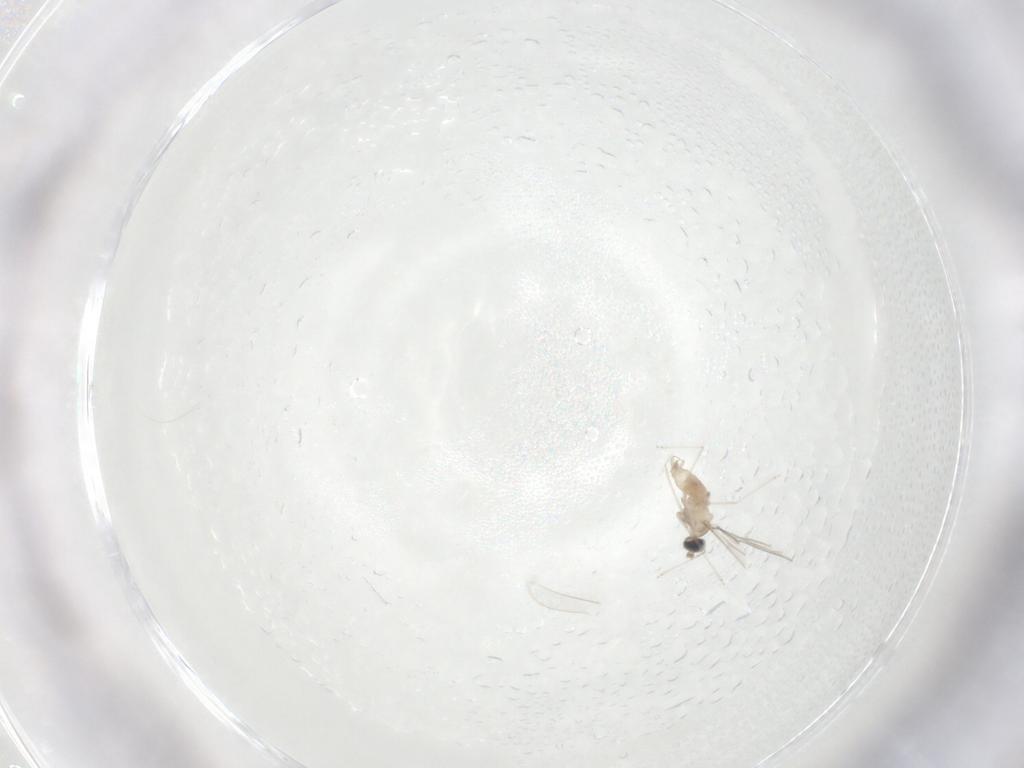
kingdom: Animalia
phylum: Arthropoda
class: Insecta
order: Diptera
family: Cecidomyiidae
